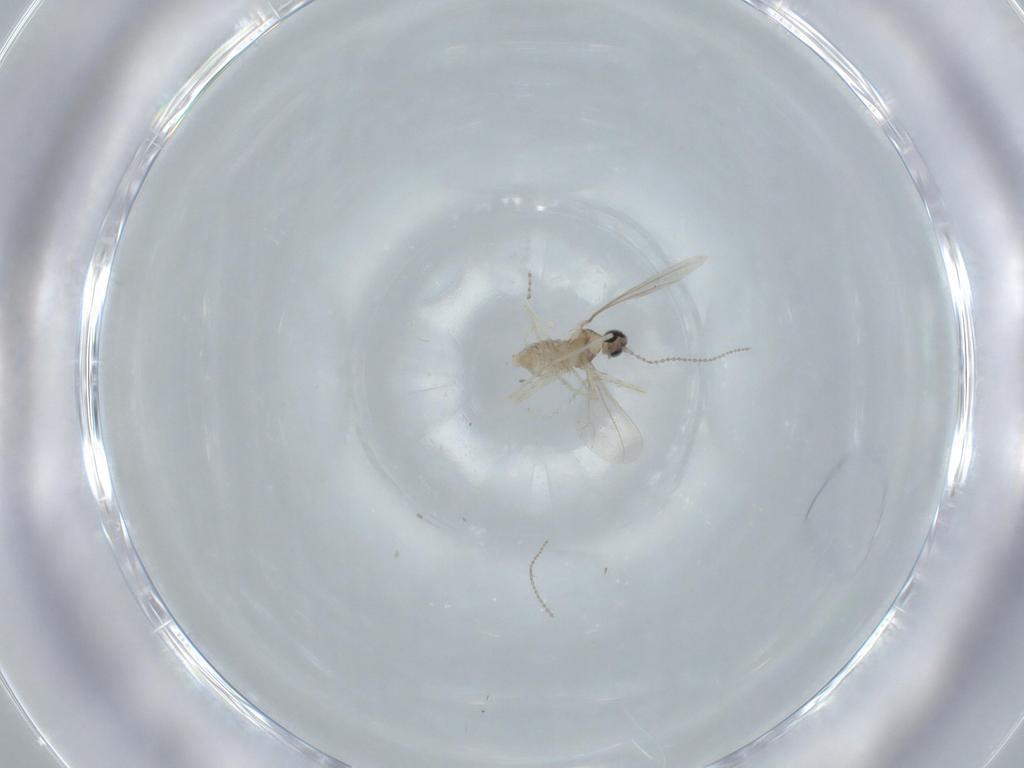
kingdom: Animalia
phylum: Arthropoda
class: Insecta
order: Diptera
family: Cecidomyiidae
